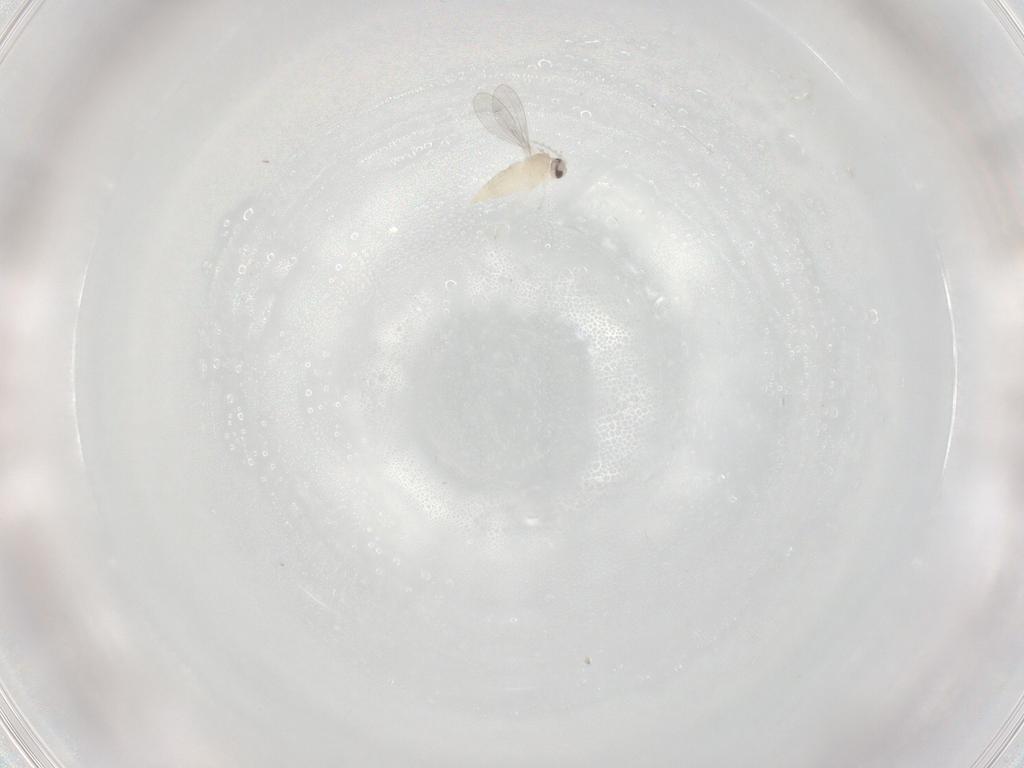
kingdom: Animalia
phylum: Arthropoda
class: Insecta
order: Diptera
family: Cecidomyiidae
